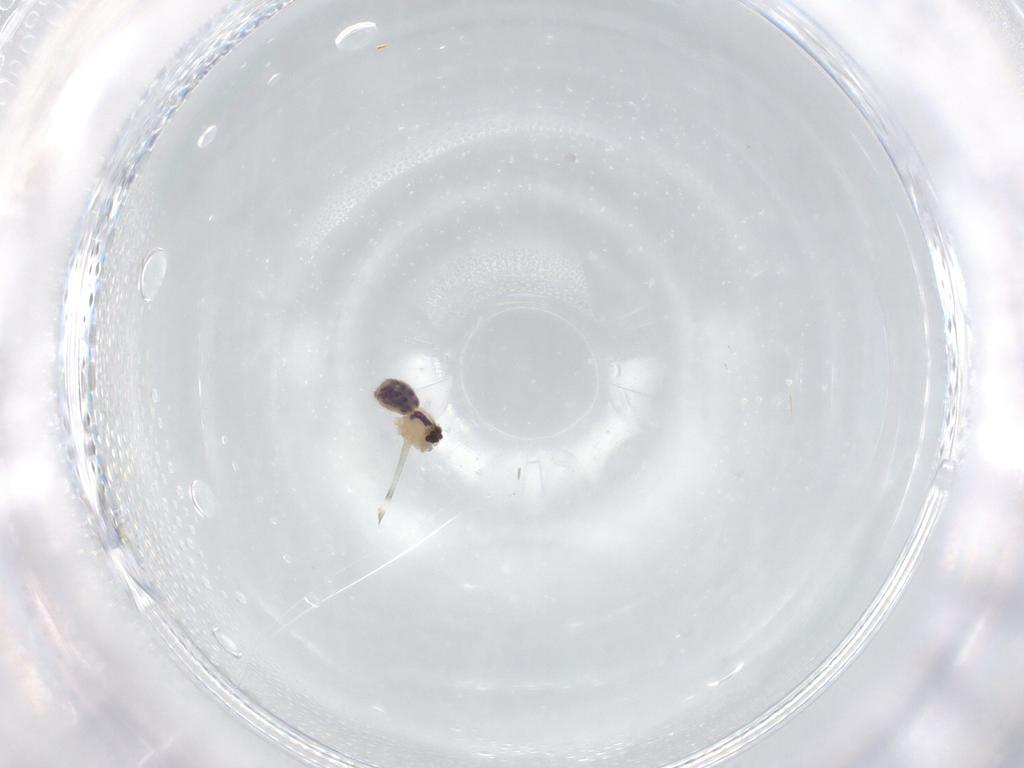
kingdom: Animalia
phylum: Arthropoda
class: Arachnida
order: Araneae
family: Pholcidae
